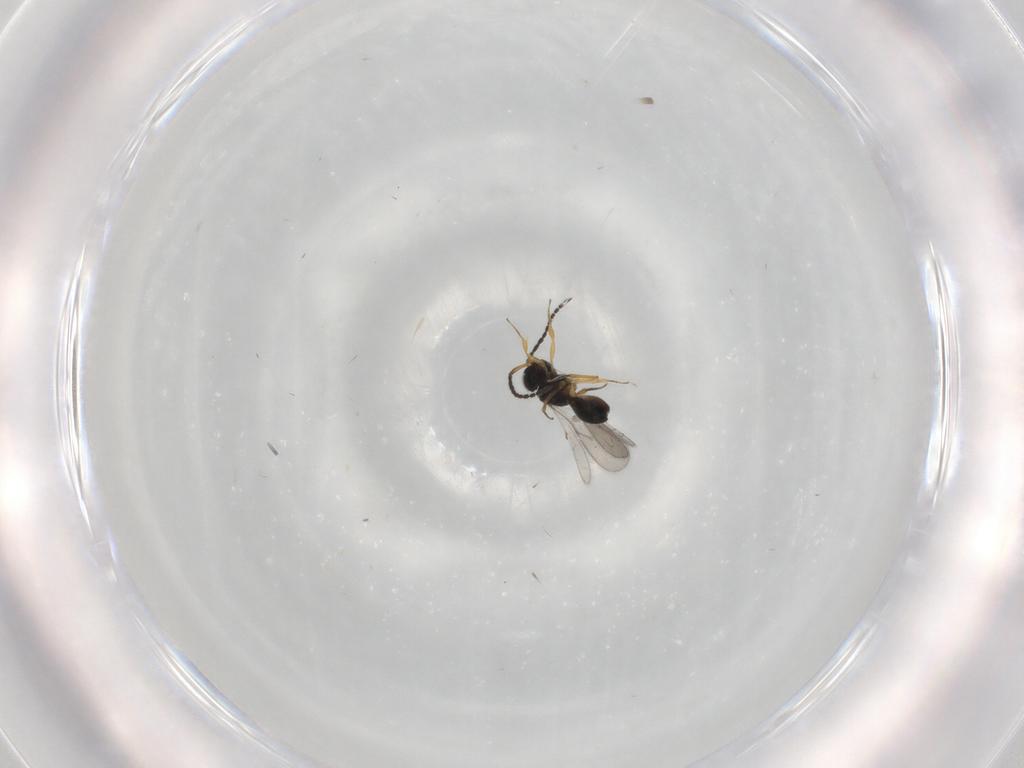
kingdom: Animalia
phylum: Arthropoda
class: Insecta
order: Hymenoptera
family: Scelionidae
